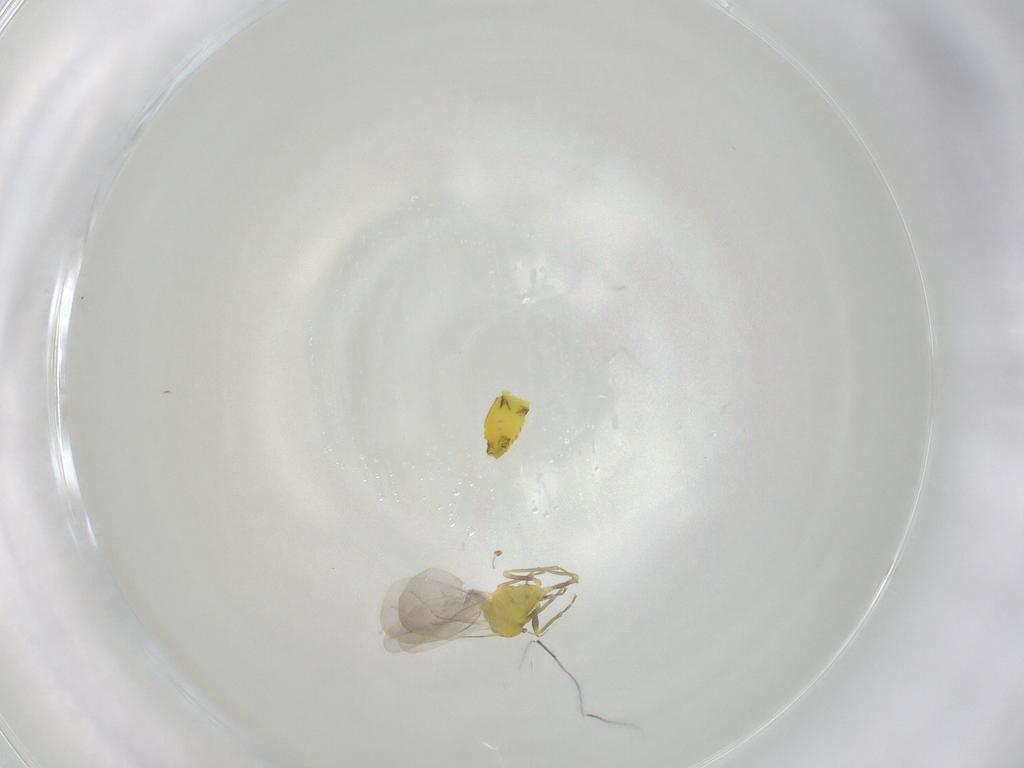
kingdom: Animalia
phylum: Arthropoda
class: Insecta
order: Hemiptera
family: Aleyrodidae
